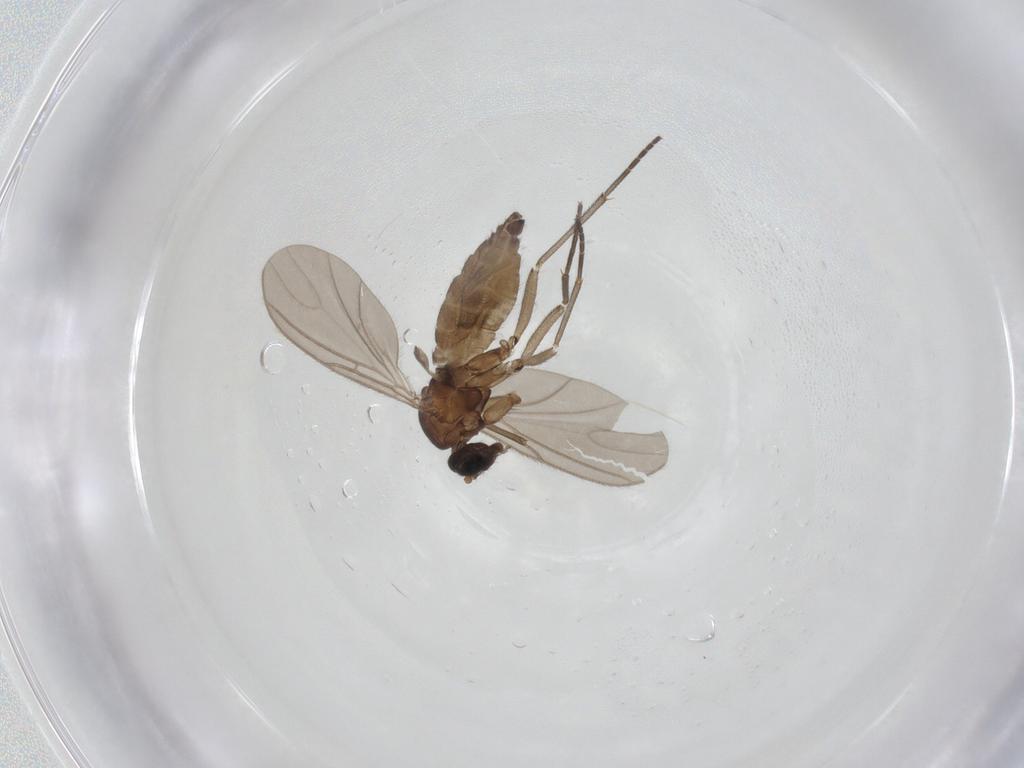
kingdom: Animalia
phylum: Arthropoda
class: Insecta
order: Diptera
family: Sciaridae
